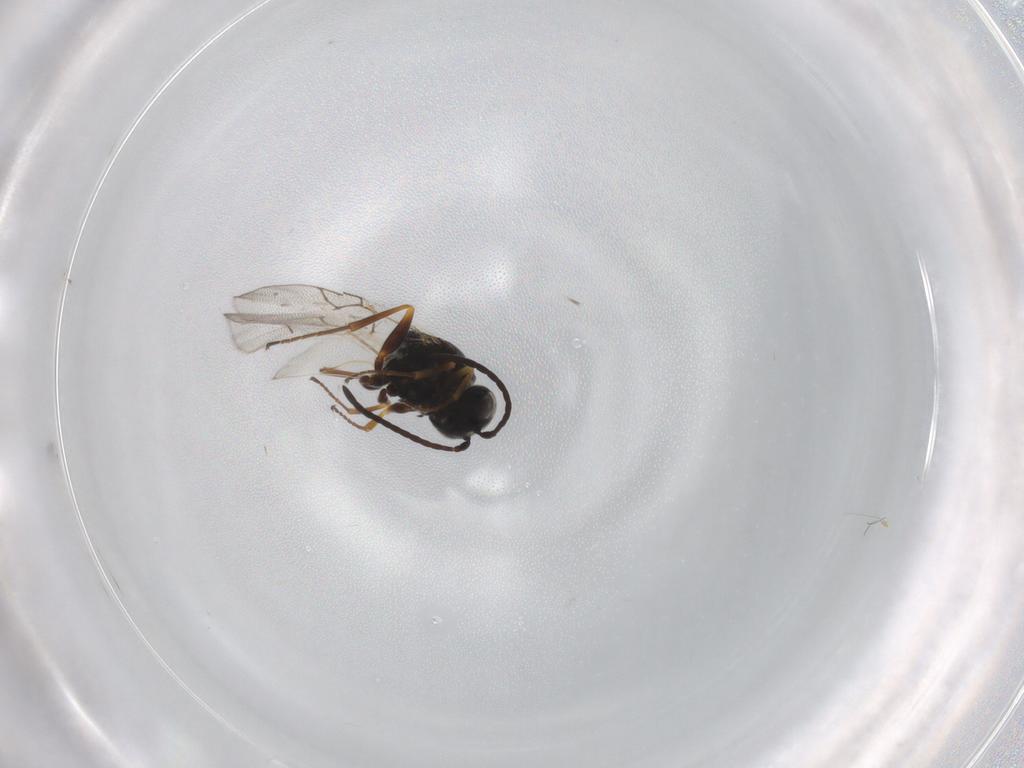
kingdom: Animalia
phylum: Arthropoda
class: Insecta
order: Hymenoptera
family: Figitidae
